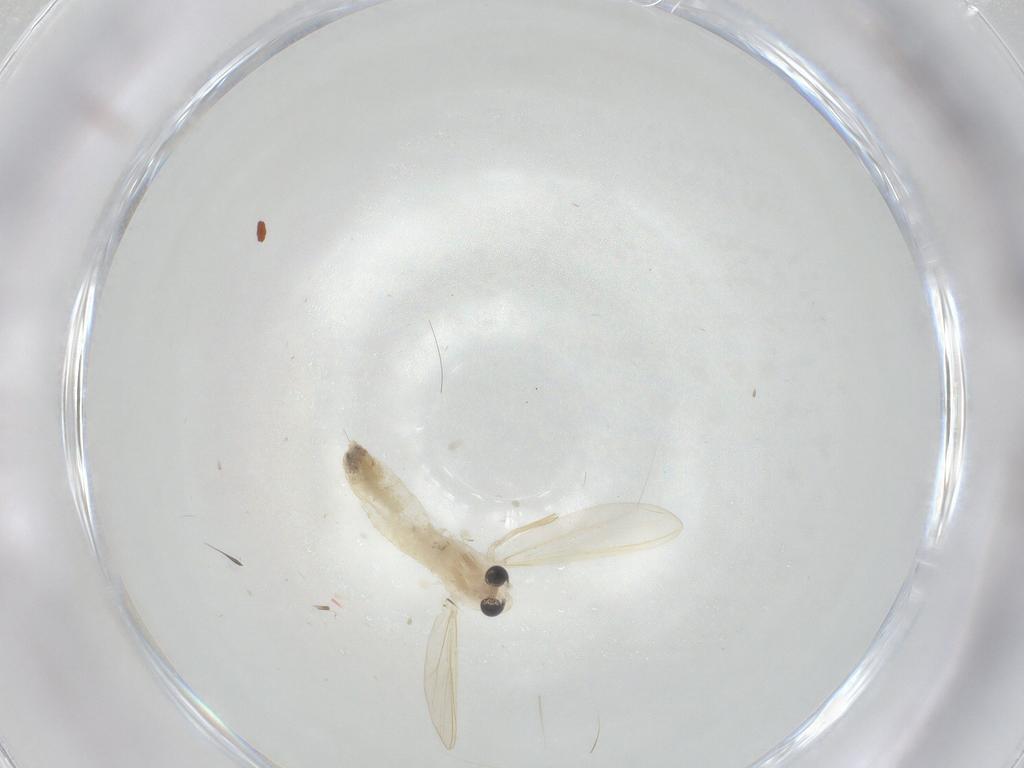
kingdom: Animalia
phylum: Arthropoda
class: Insecta
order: Diptera
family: Chironomidae
